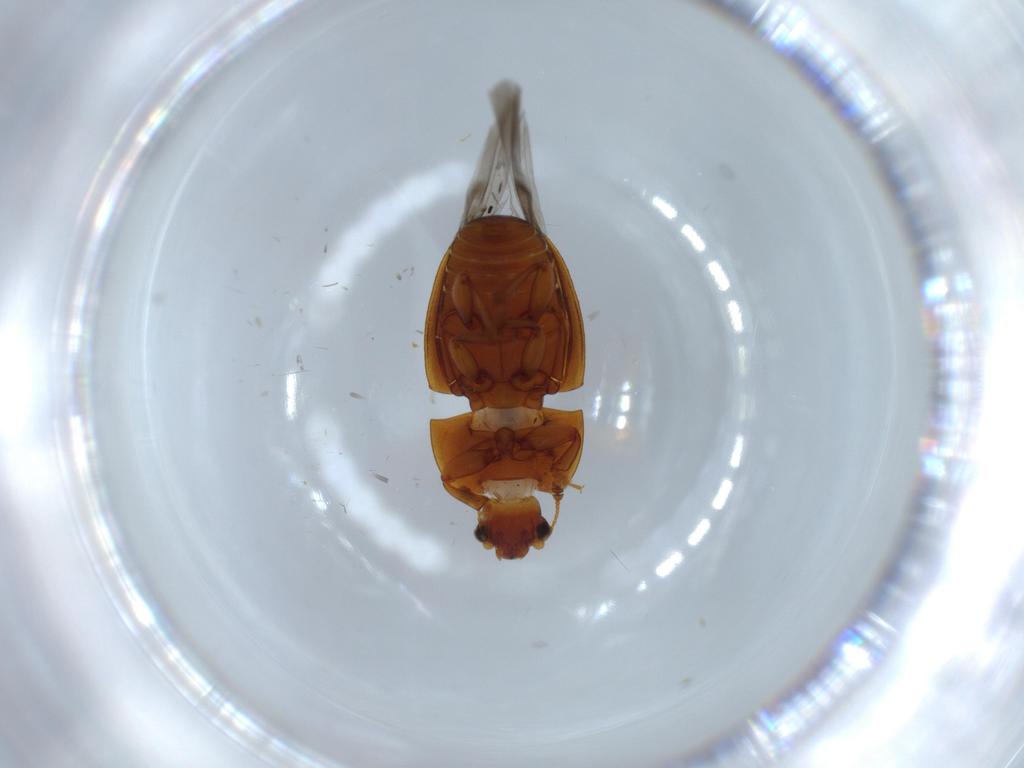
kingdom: Animalia
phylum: Arthropoda
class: Insecta
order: Coleoptera
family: Nitidulidae
